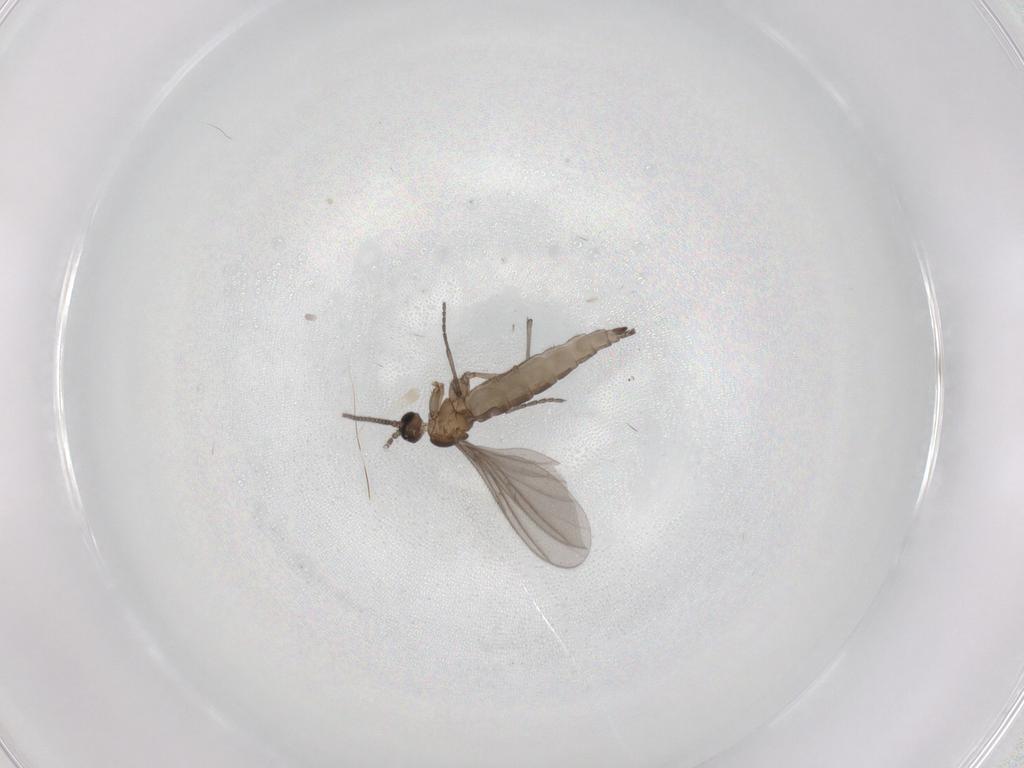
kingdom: Animalia
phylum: Arthropoda
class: Insecta
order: Diptera
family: Sciaridae
